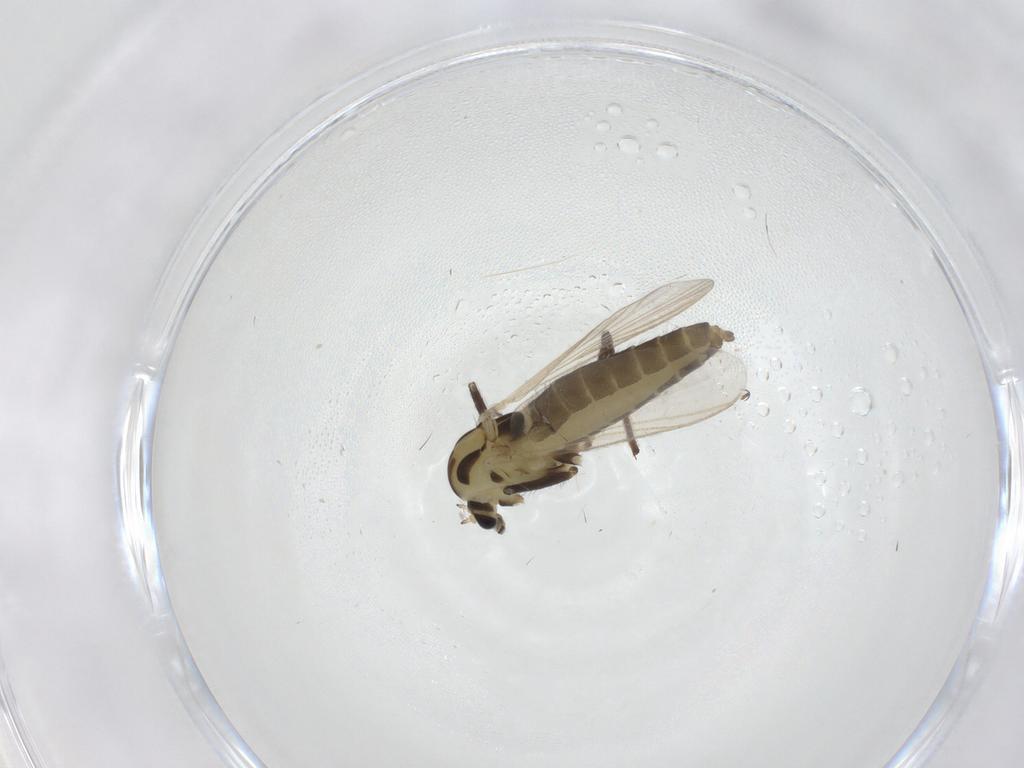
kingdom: Animalia
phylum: Arthropoda
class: Insecta
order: Diptera
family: Chironomidae
